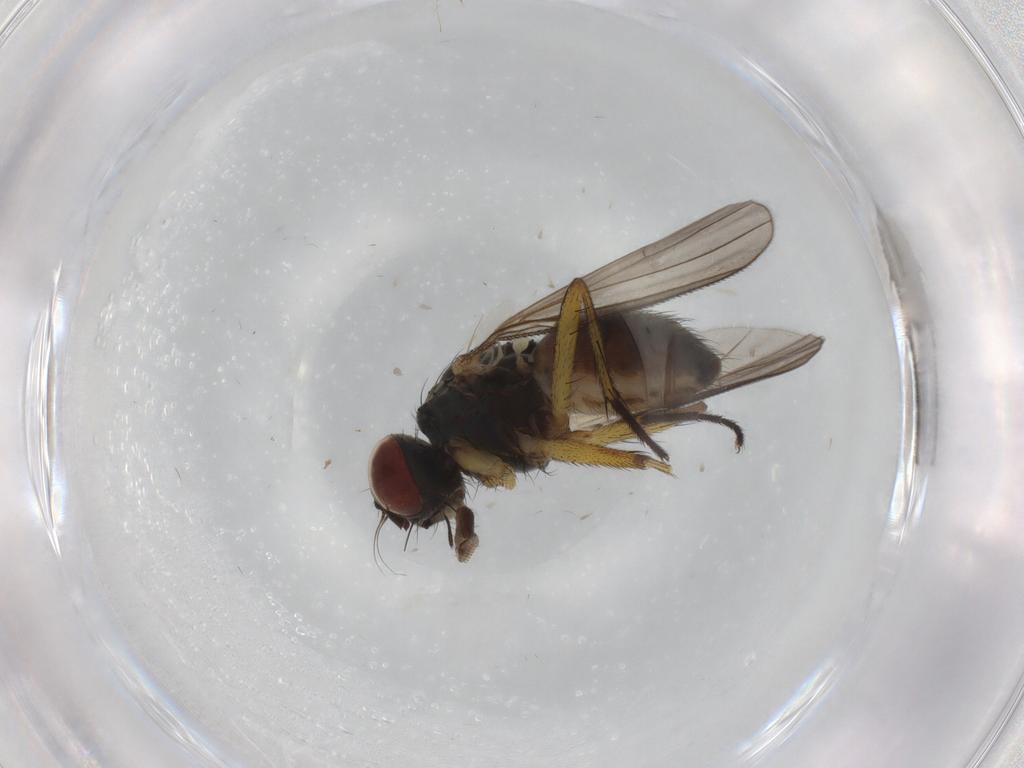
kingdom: Animalia
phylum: Arthropoda
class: Insecta
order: Diptera
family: Muscidae
